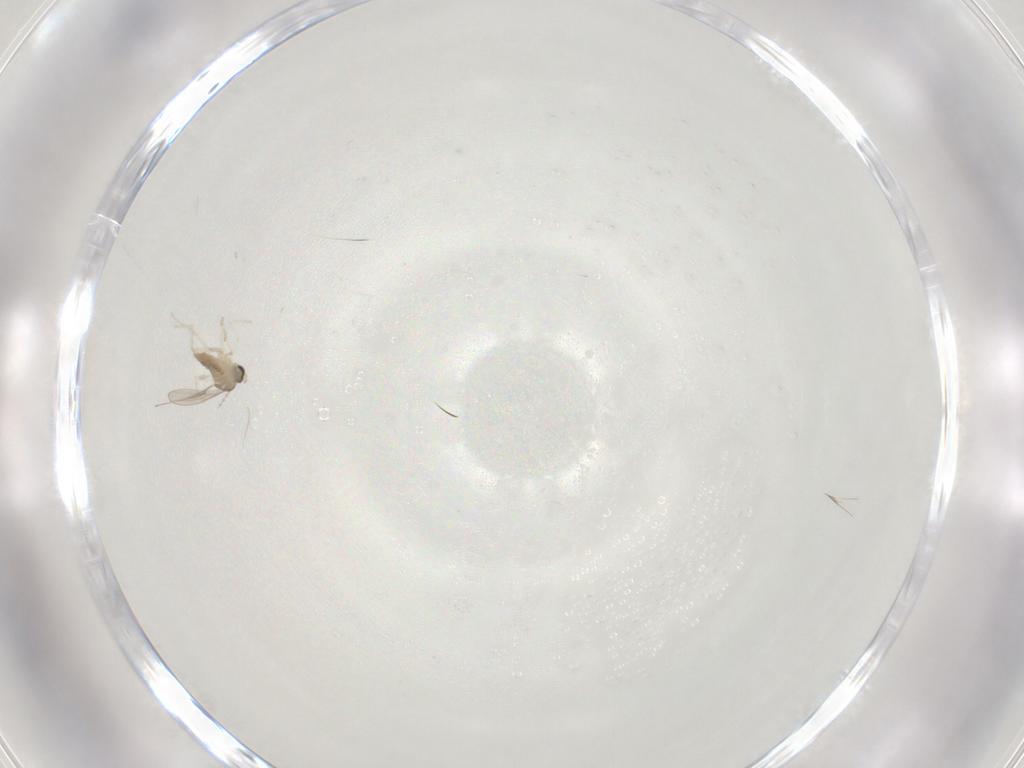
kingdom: Animalia
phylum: Arthropoda
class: Insecta
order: Diptera
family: Cecidomyiidae
